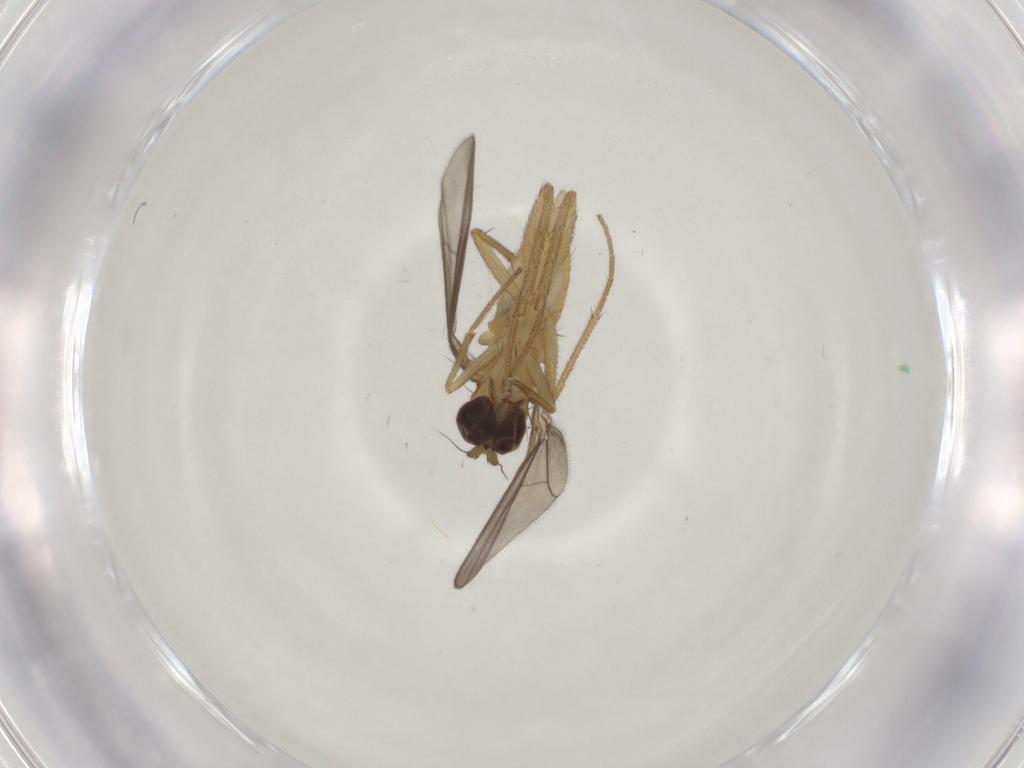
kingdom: Animalia
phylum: Arthropoda
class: Insecta
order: Diptera
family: Dolichopodidae
